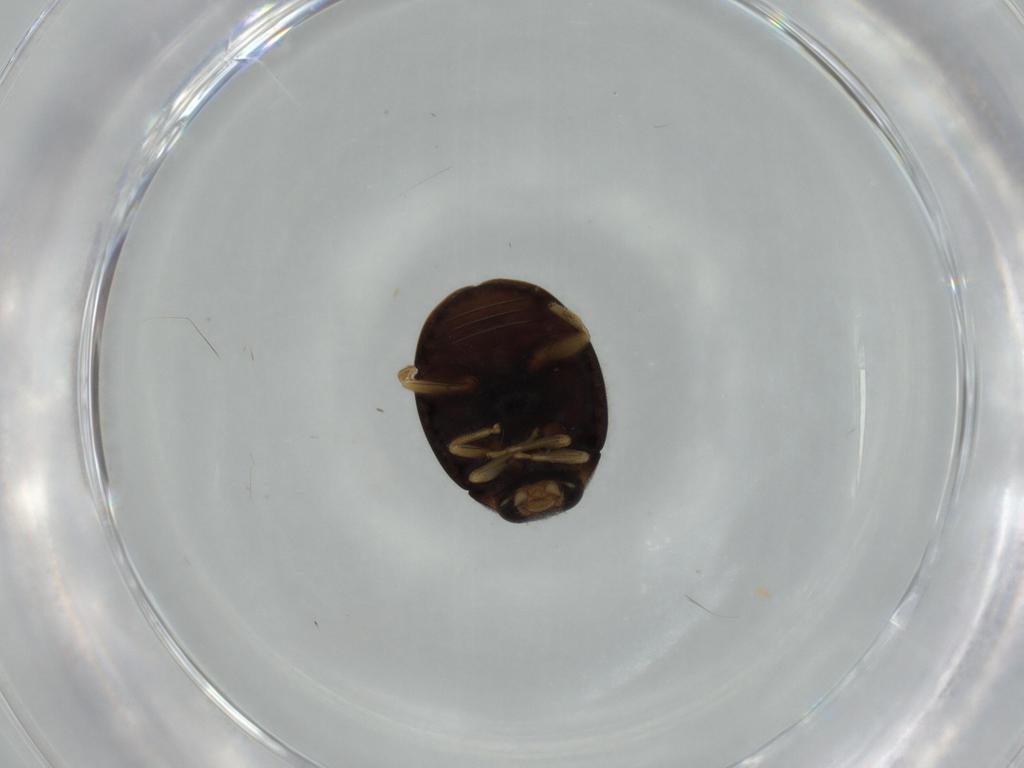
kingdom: Animalia
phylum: Arthropoda
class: Insecta
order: Coleoptera
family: Coccinellidae
